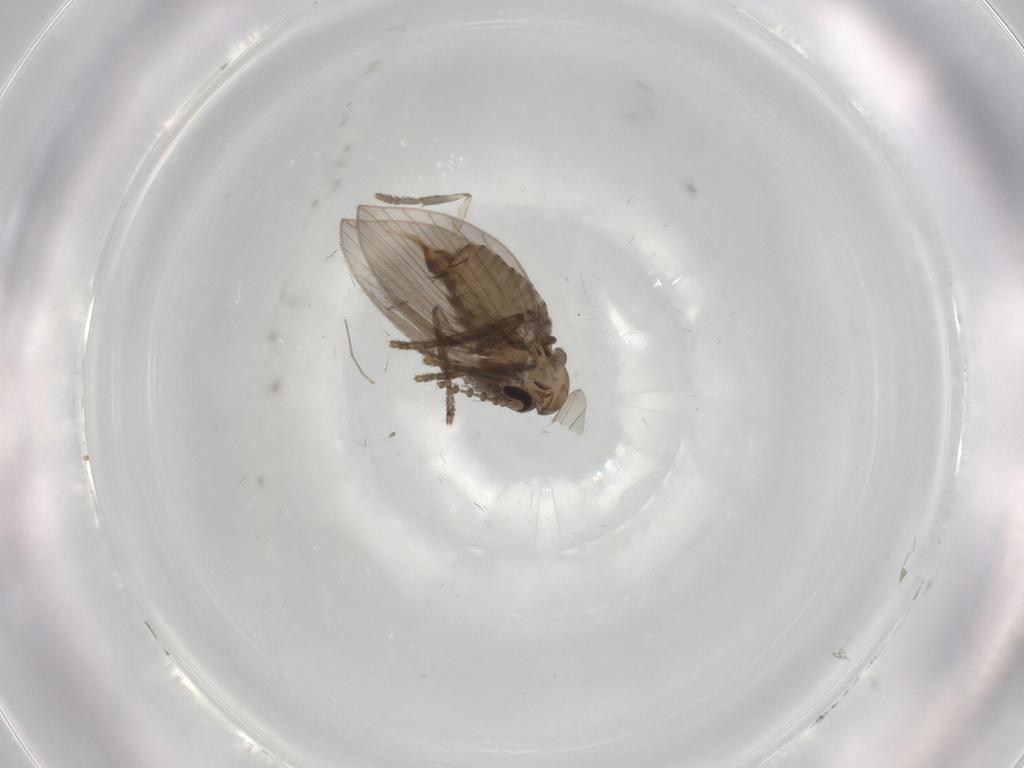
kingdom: Animalia
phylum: Arthropoda
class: Insecta
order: Diptera
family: Psychodidae
